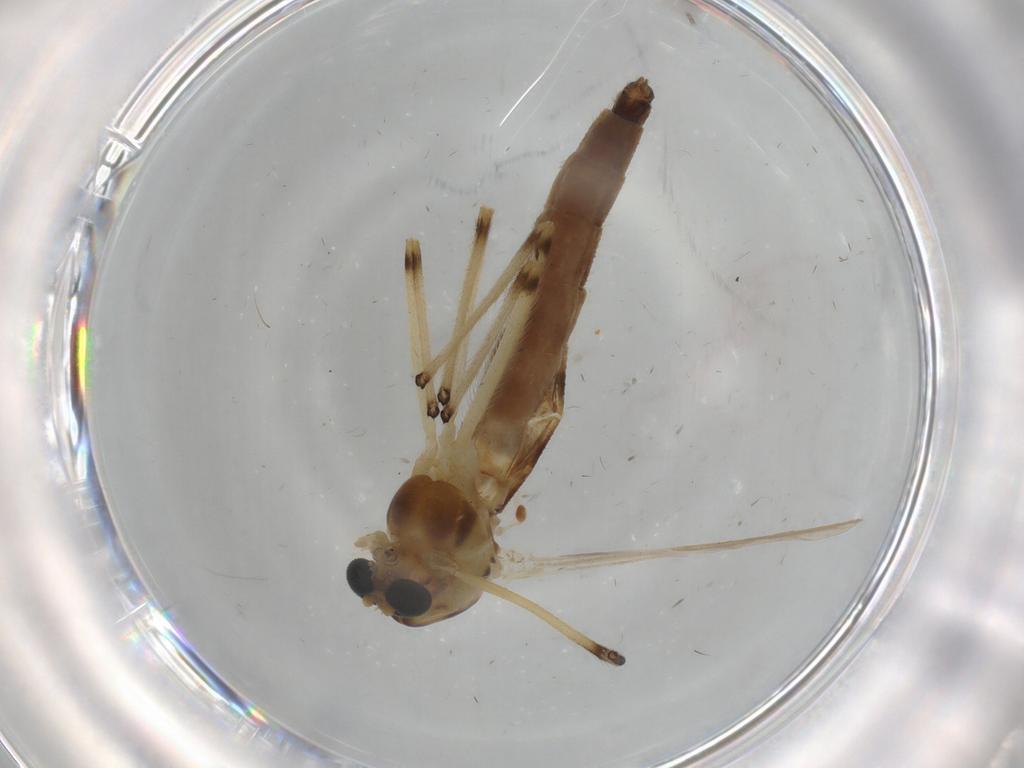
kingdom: Animalia
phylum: Arthropoda
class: Insecta
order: Diptera
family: Chironomidae
